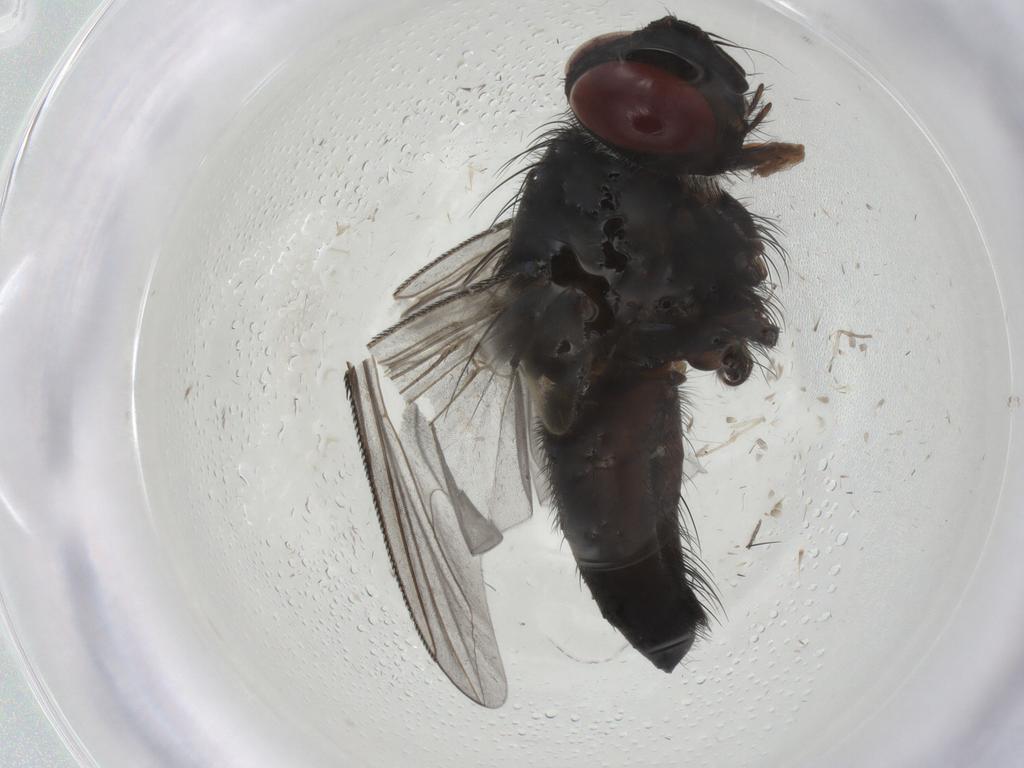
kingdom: Animalia
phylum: Arthropoda
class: Insecta
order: Diptera
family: Tachinidae
